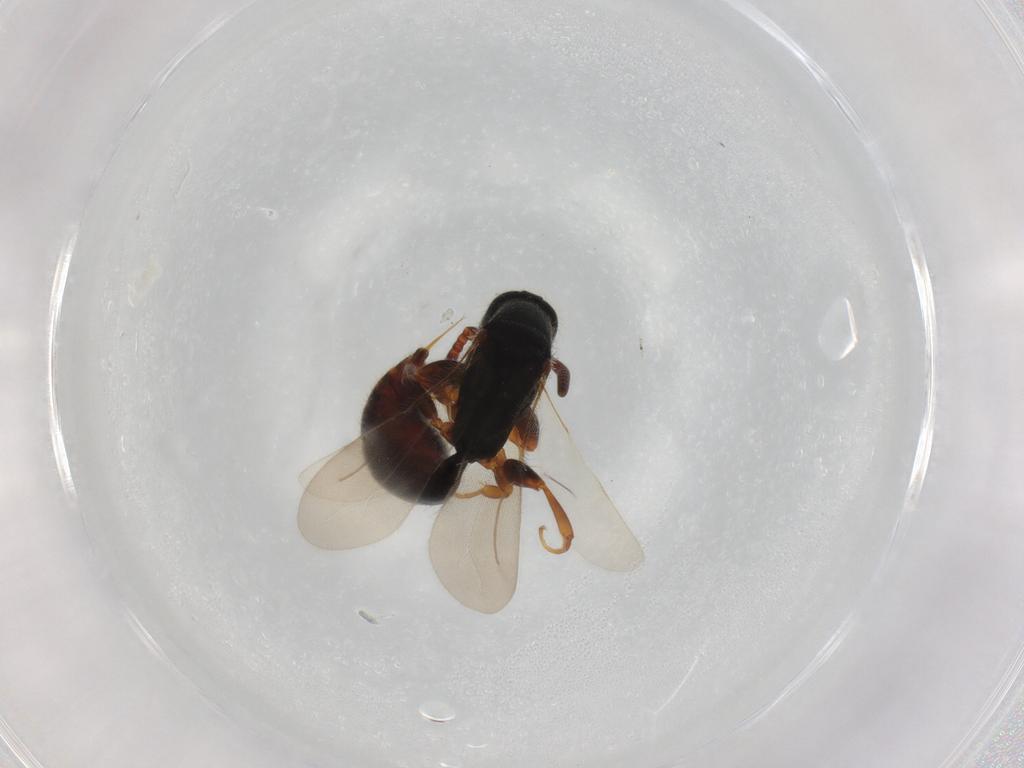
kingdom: Animalia
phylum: Arthropoda
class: Insecta
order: Hymenoptera
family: Bethylidae
